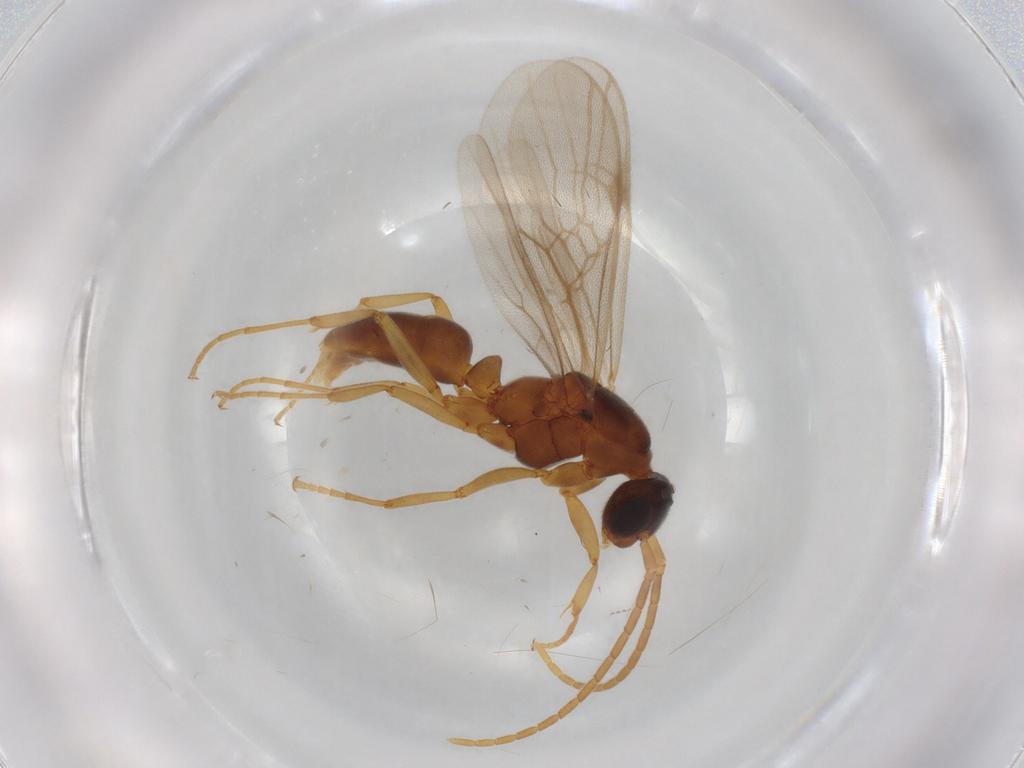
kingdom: Animalia
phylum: Arthropoda
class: Insecta
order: Hymenoptera
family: Formicidae
